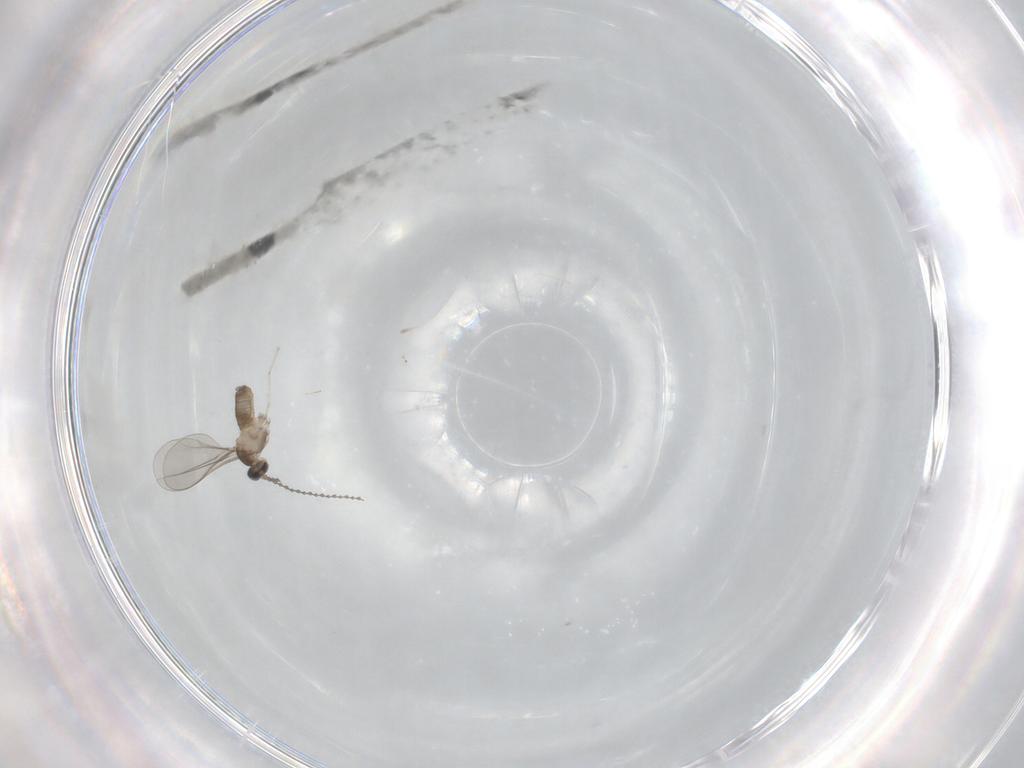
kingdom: Animalia
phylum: Arthropoda
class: Insecta
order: Diptera
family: Cecidomyiidae
